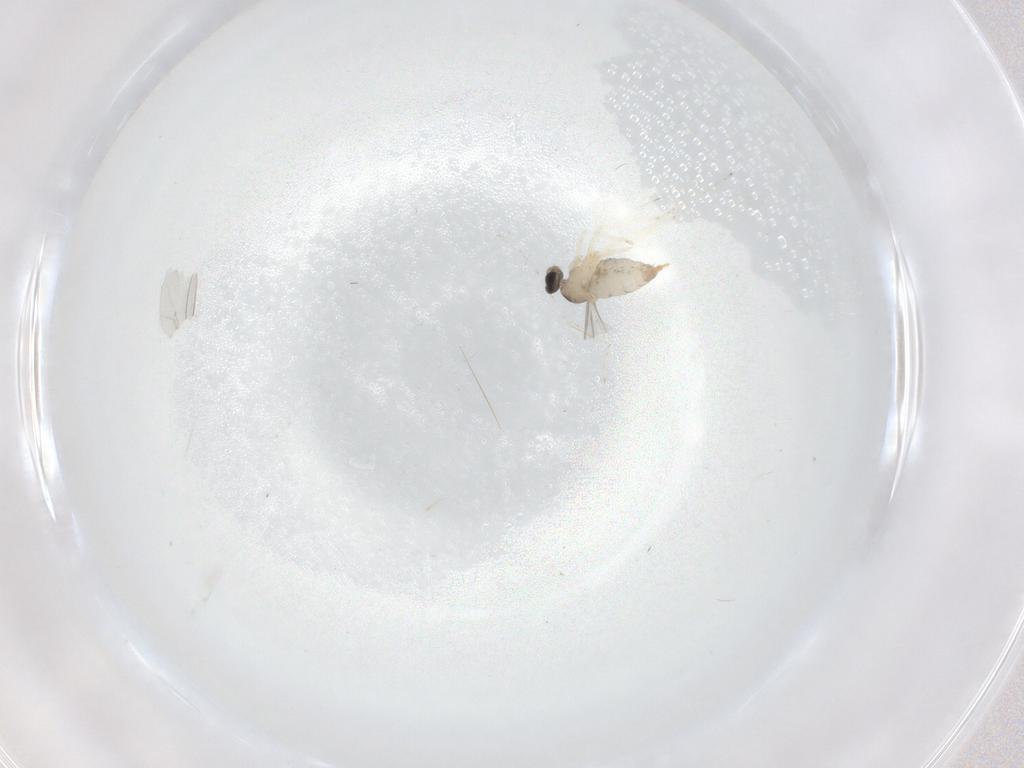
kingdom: Animalia
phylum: Arthropoda
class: Insecta
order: Diptera
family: Cecidomyiidae
